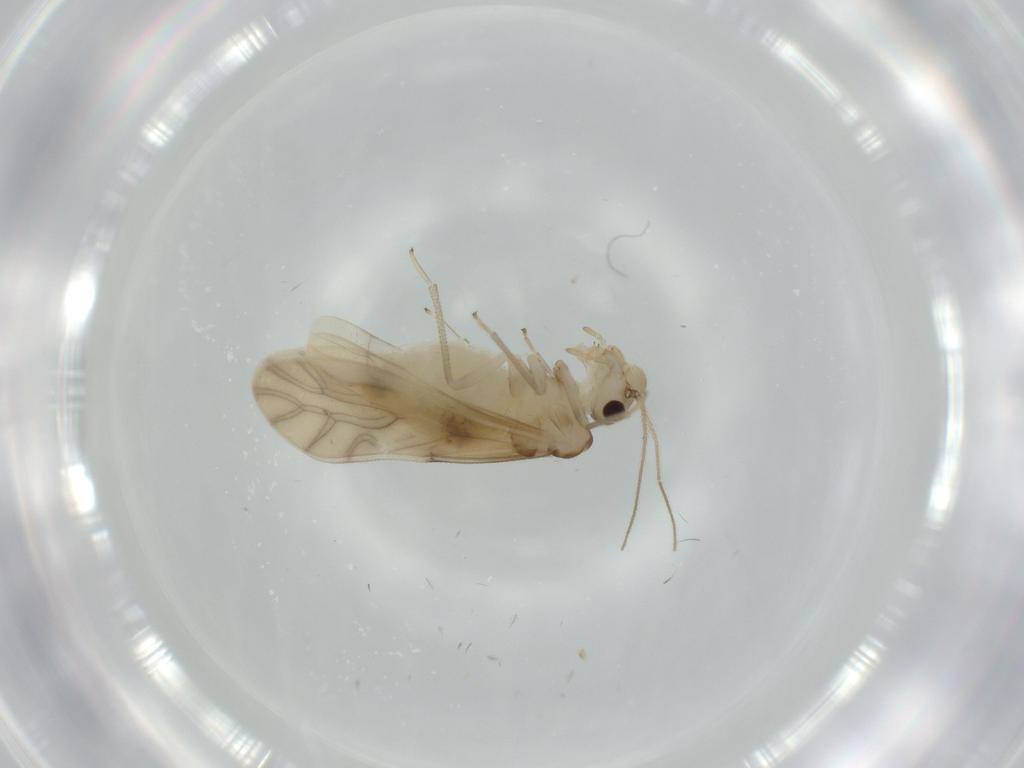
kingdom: Animalia
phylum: Arthropoda
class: Insecta
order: Psocodea
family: Caeciliusidae
